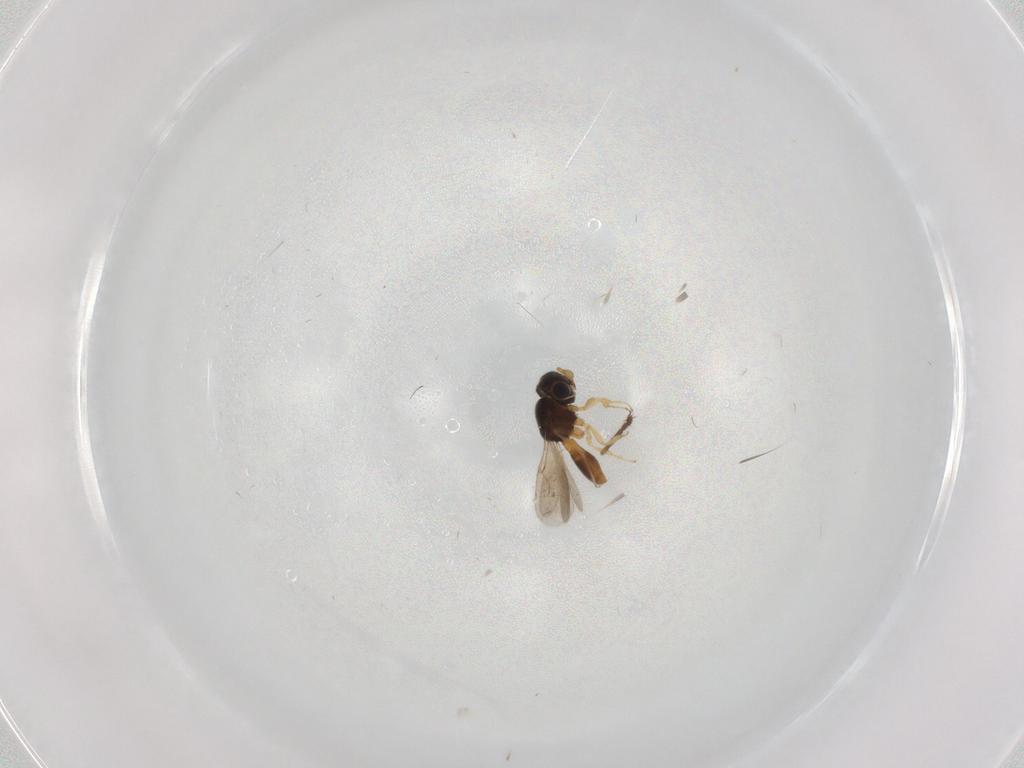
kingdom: Animalia
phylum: Arthropoda
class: Insecta
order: Hymenoptera
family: Scelionidae
